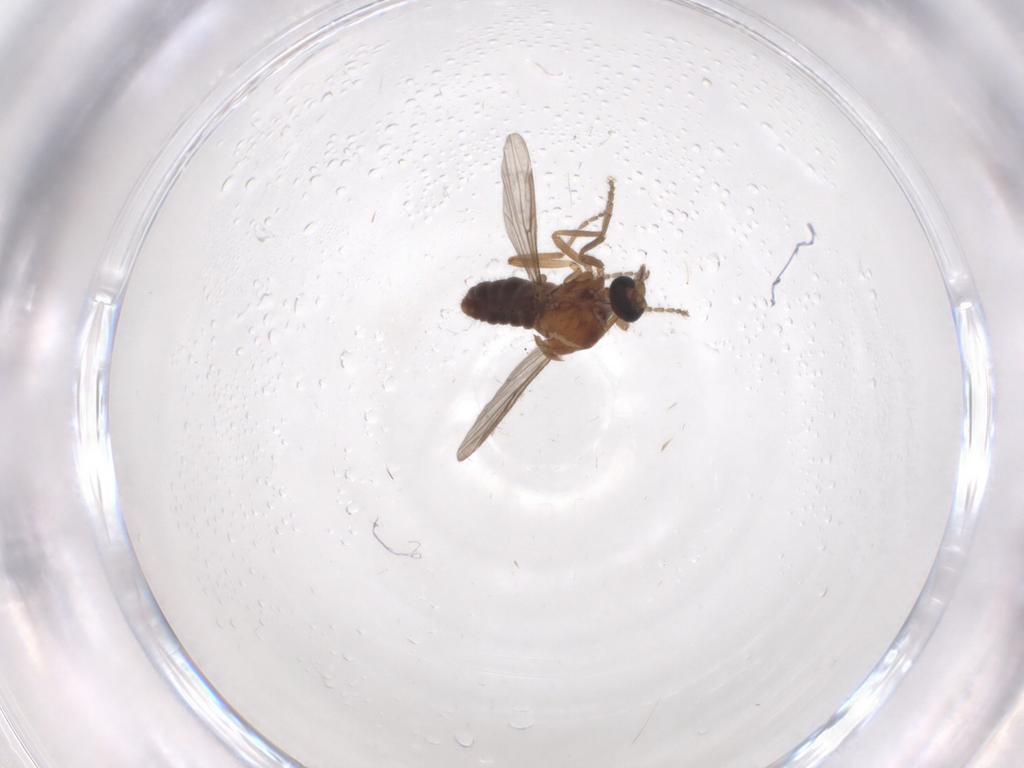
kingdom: Animalia
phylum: Arthropoda
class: Insecta
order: Diptera
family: Ceratopogonidae
